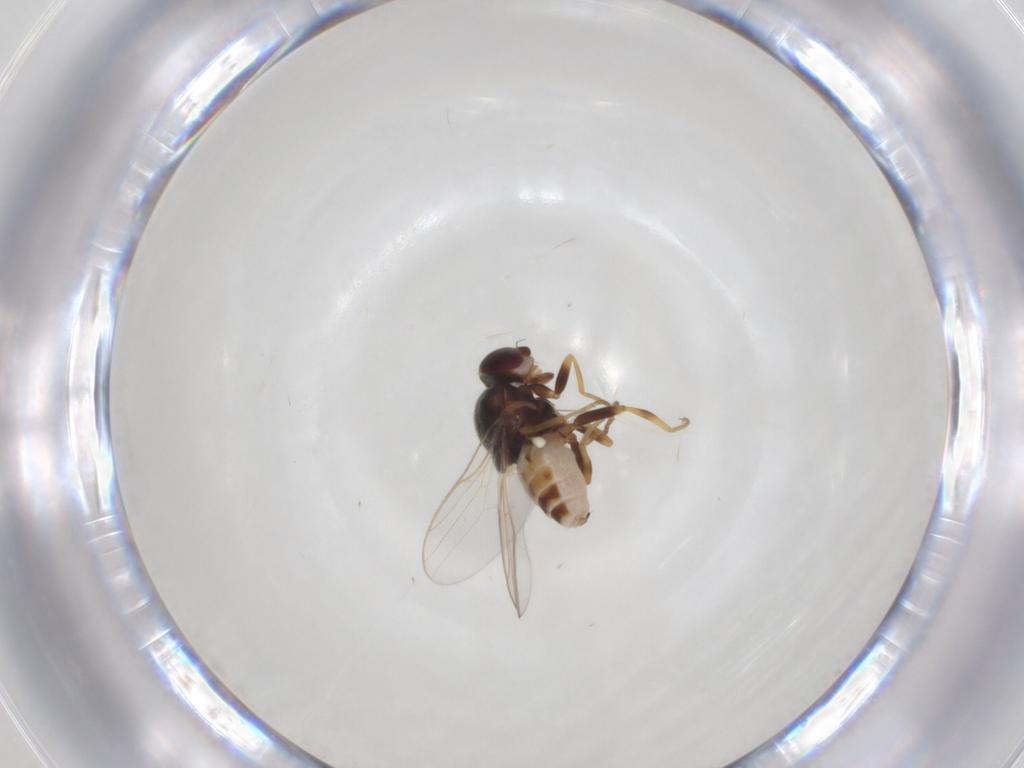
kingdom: Animalia
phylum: Arthropoda
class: Insecta
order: Diptera
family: Chloropidae
